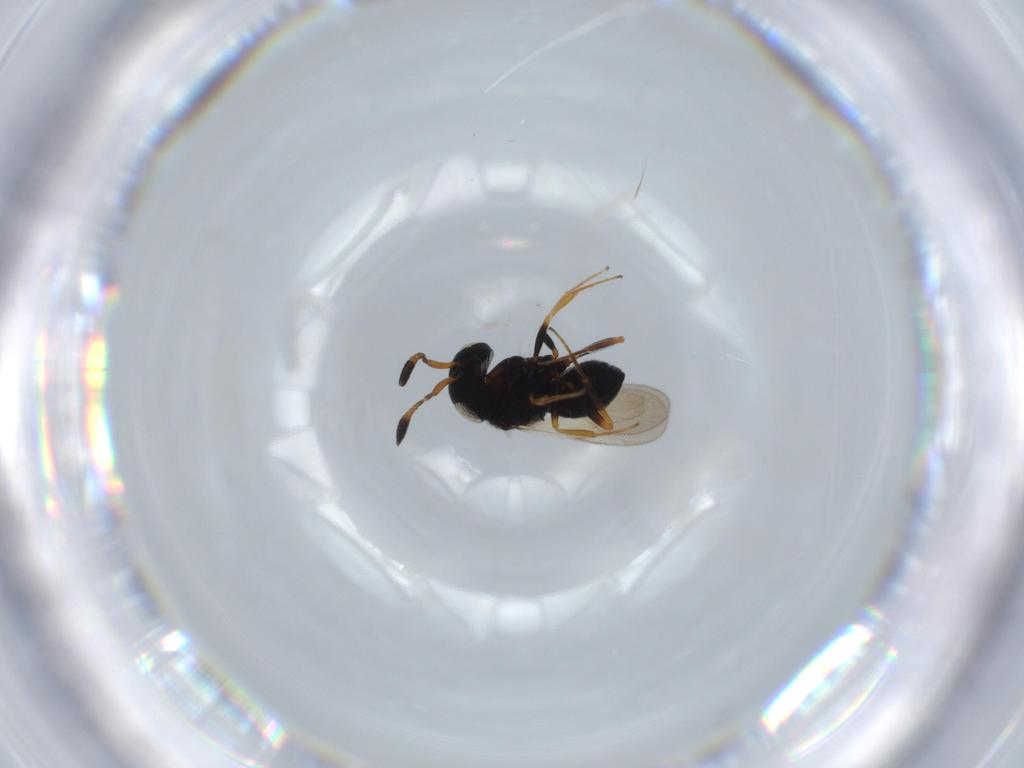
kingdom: Animalia
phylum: Arthropoda
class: Insecta
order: Hymenoptera
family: Scelionidae
